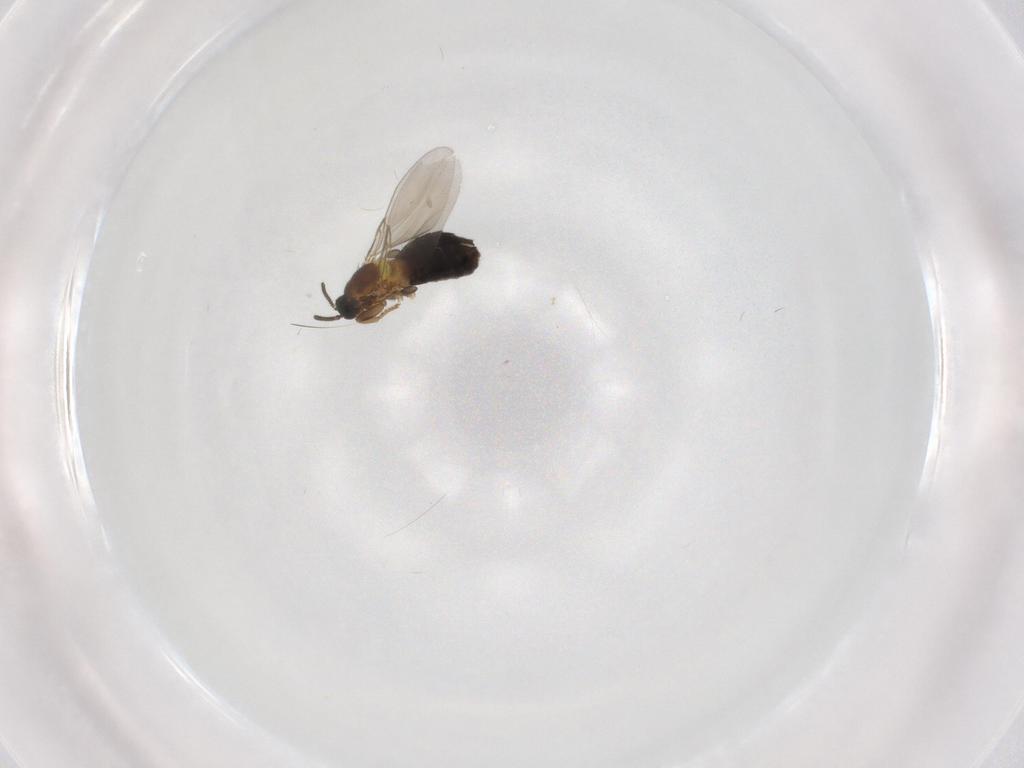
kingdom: Animalia
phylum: Arthropoda
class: Insecta
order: Diptera
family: Scatopsidae
